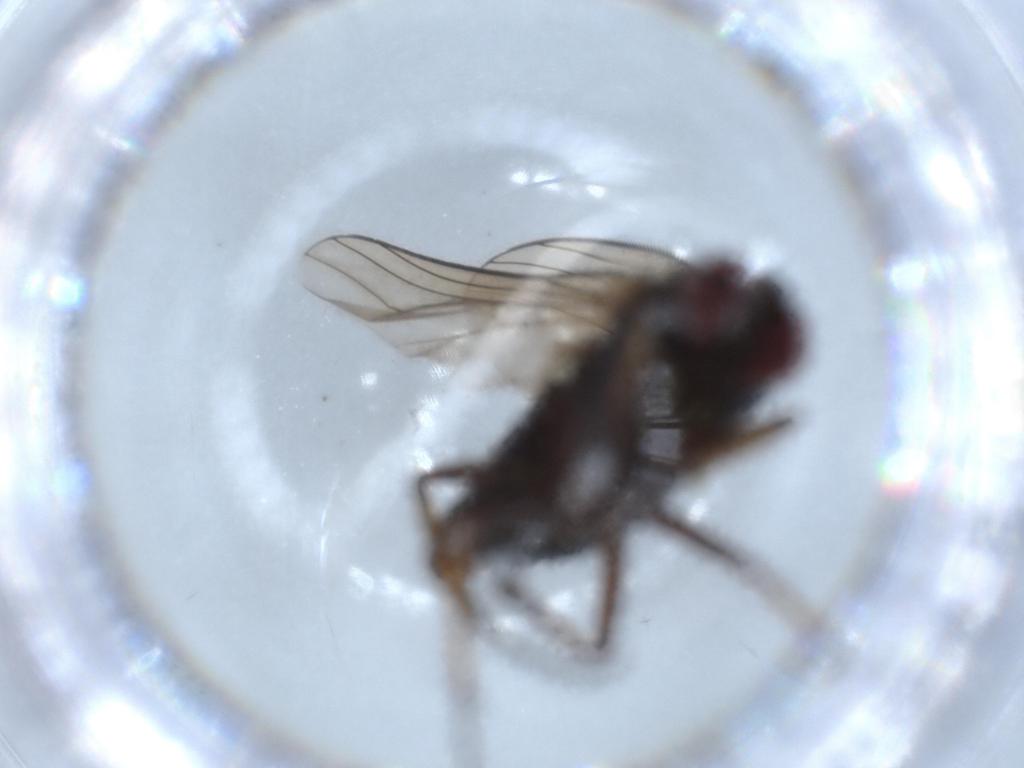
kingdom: Animalia
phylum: Arthropoda
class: Insecta
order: Diptera
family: Dolichopodidae
